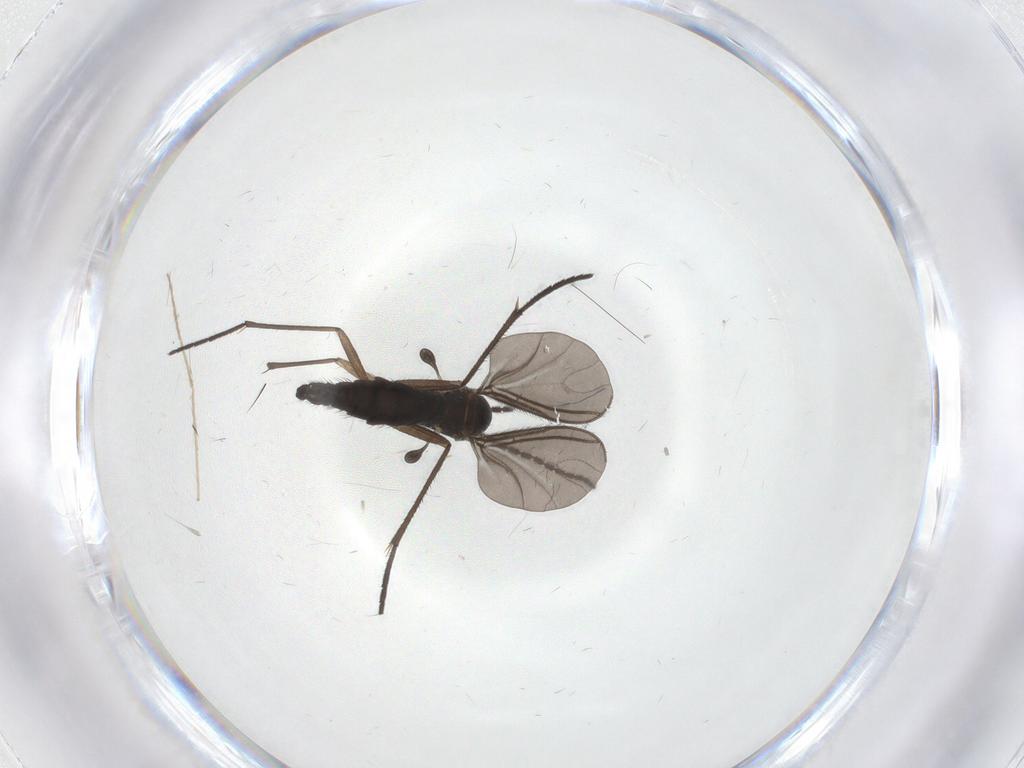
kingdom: Animalia
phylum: Arthropoda
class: Insecta
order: Diptera
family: Sciaridae
